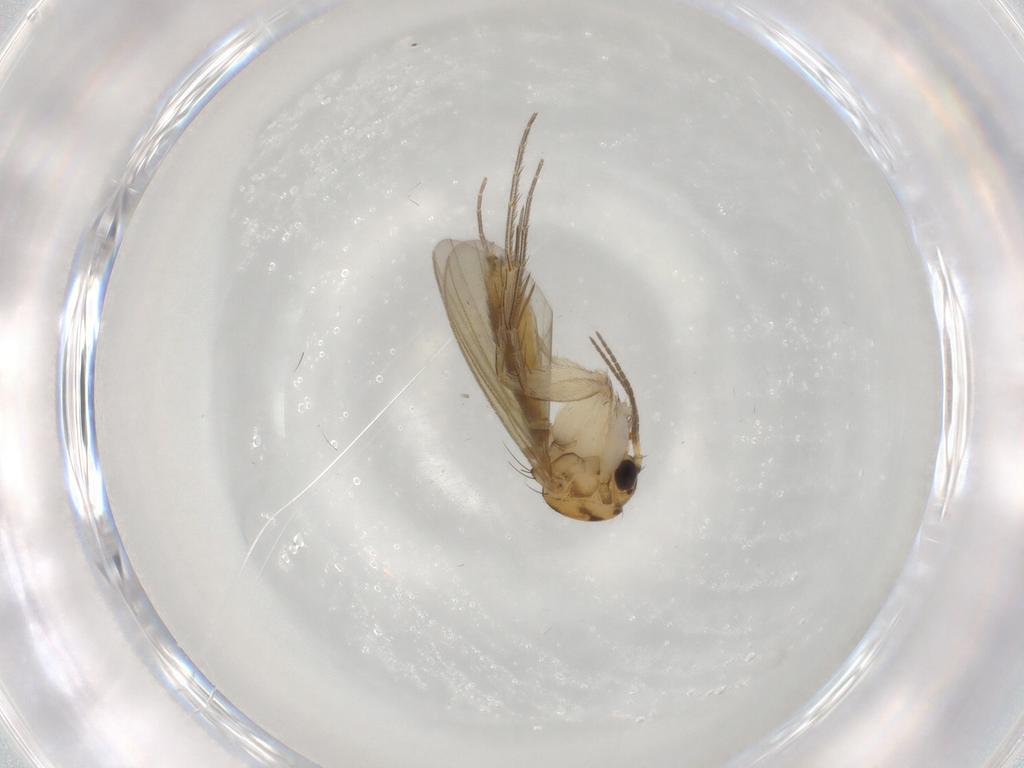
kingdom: Animalia
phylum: Arthropoda
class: Insecta
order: Diptera
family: Mycetophilidae
